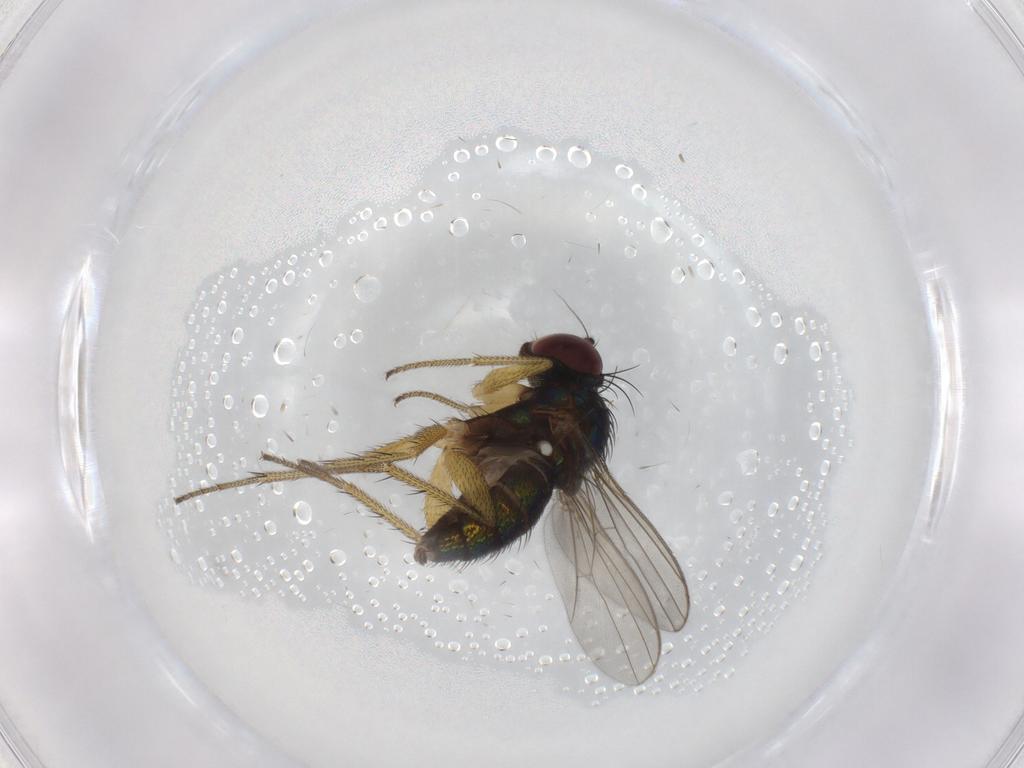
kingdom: Animalia
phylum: Arthropoda
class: Insecta
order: Diptera
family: Dolichopodidae
